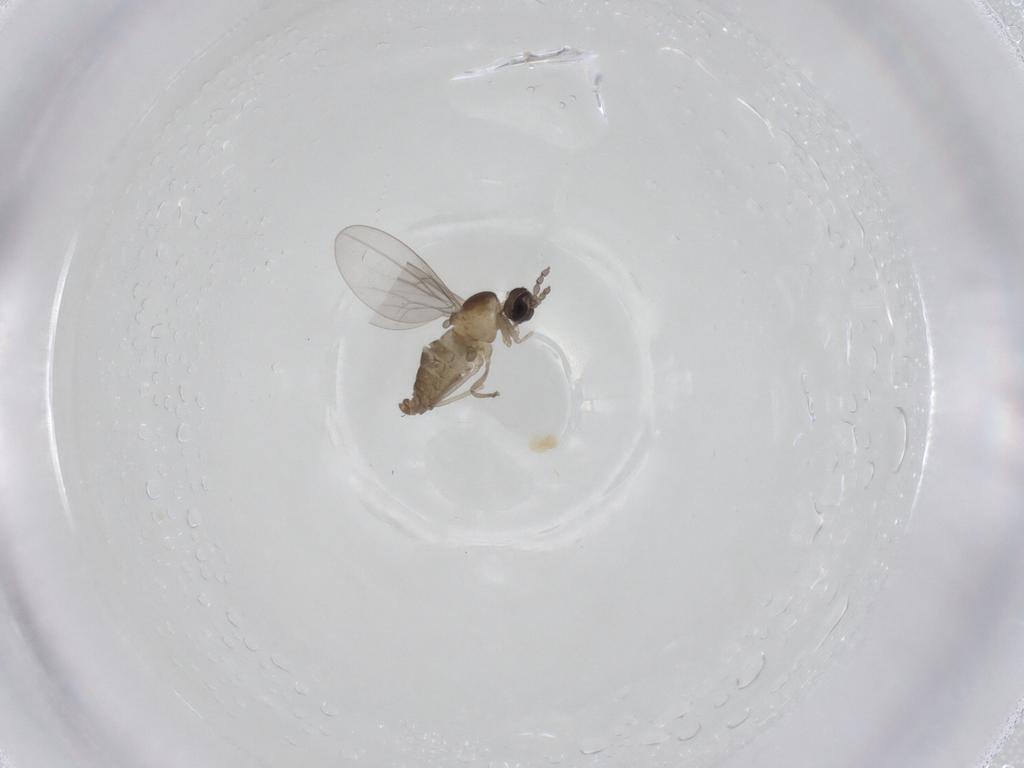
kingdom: Animalia
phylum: Arthropoda
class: Insecta
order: Diptera
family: Cecidomyiidae
